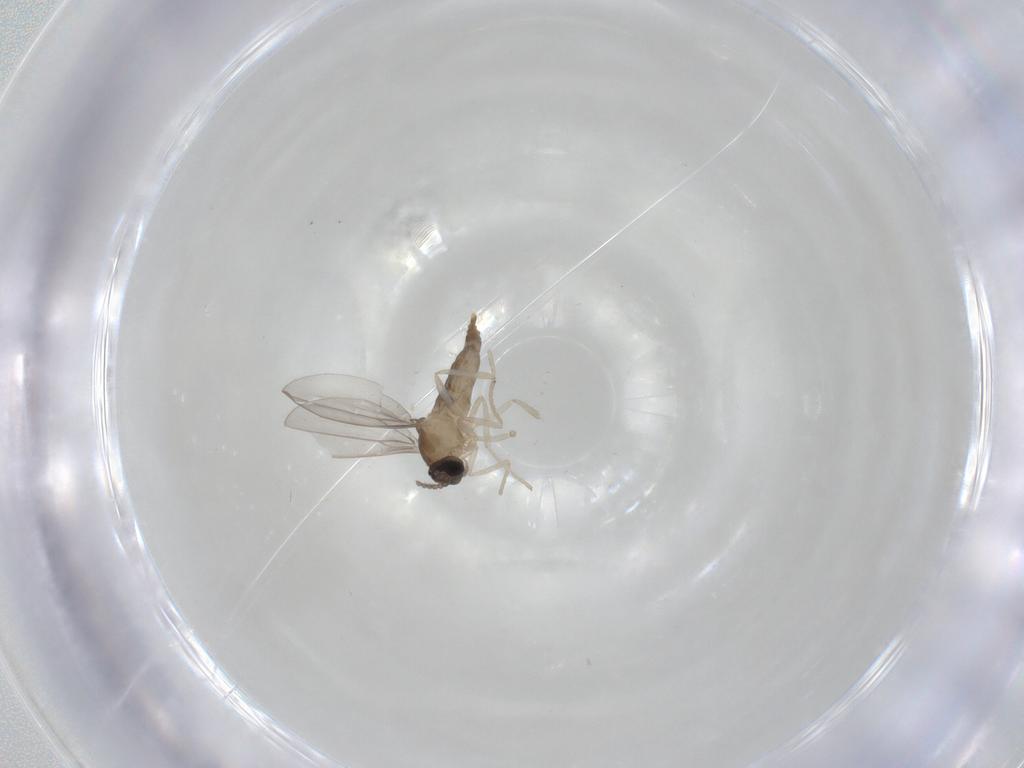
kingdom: Animalia
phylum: Arthropoda
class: Insecta
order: Diptera
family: Cecidomyiidae
